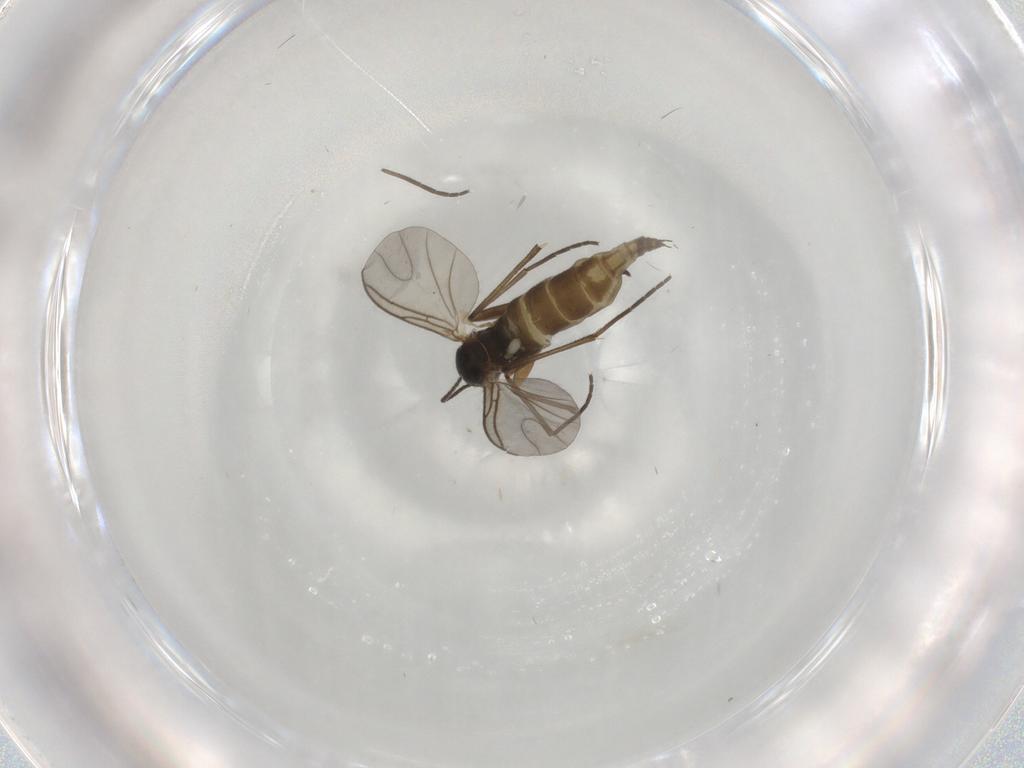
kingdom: Animalia
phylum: Arthropoda
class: Insecta
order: Diptera
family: Sciaridae
